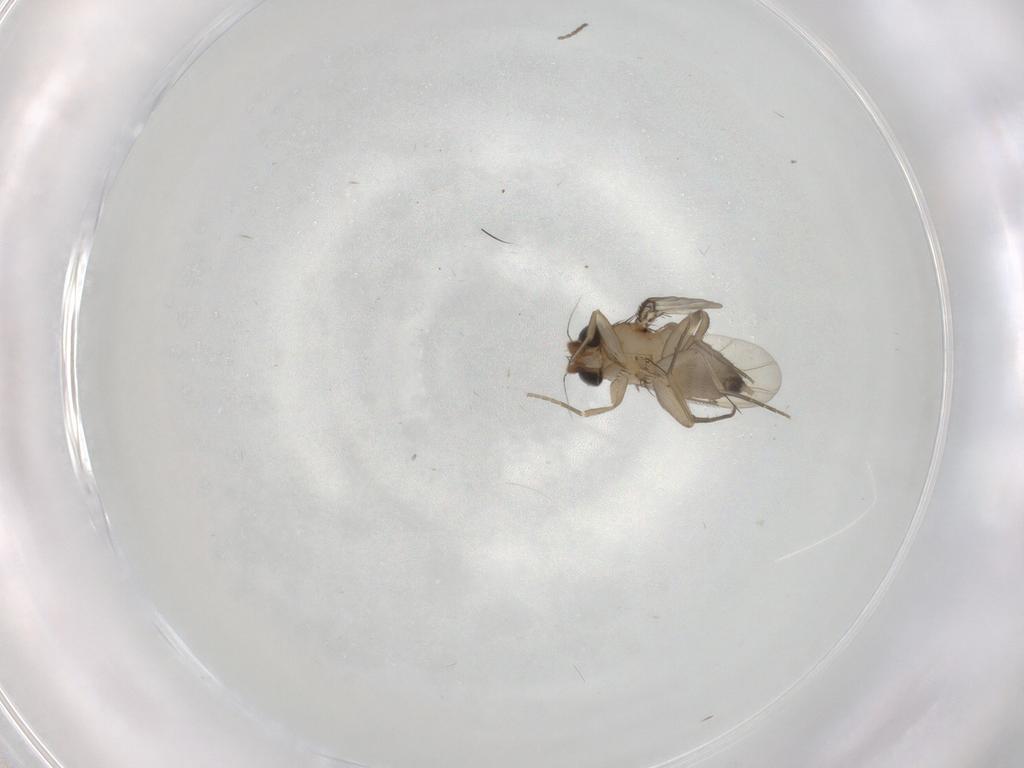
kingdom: Animalia
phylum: Arthropoda
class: Insecta
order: Diptera
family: Phoridae
